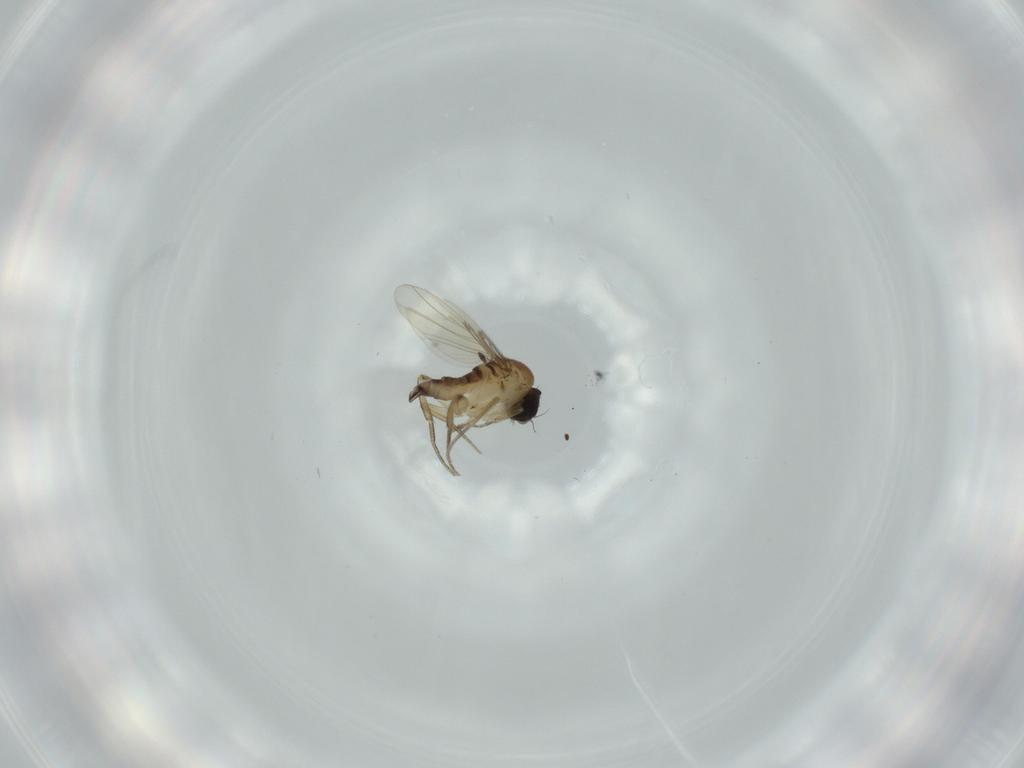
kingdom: Animalia
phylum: Arthropoda
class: Insecta
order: Diptera
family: Phoridae
